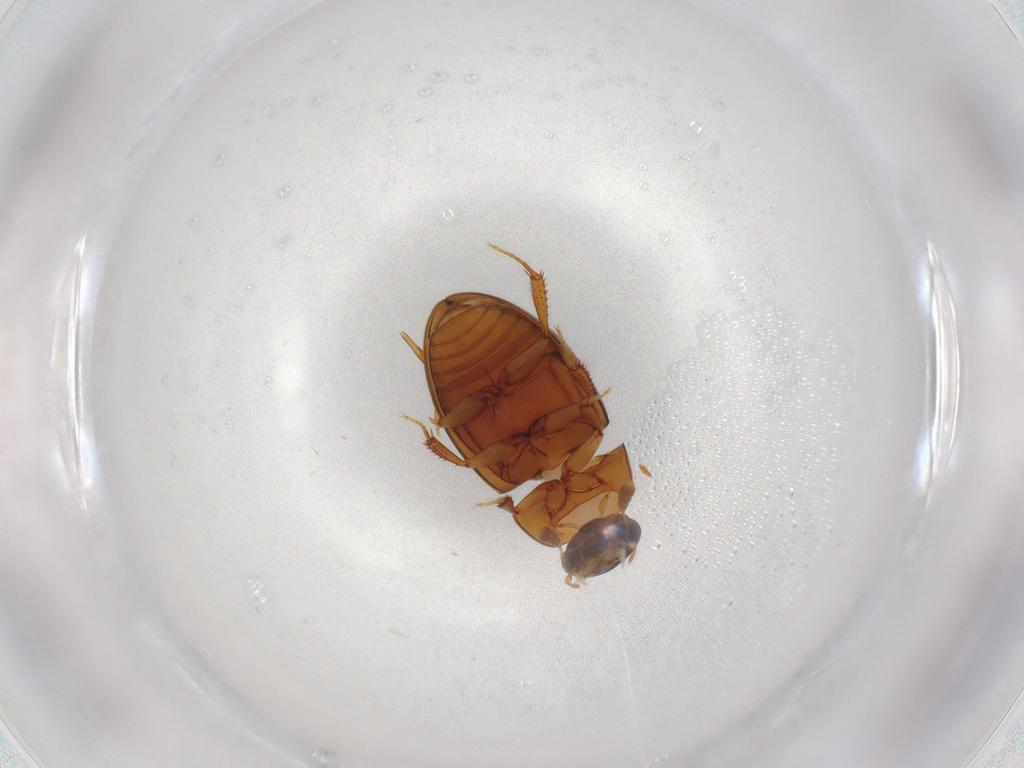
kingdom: Animalia
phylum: Arthropoda
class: Insecta
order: Coleoptera
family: Hydrophilidae
